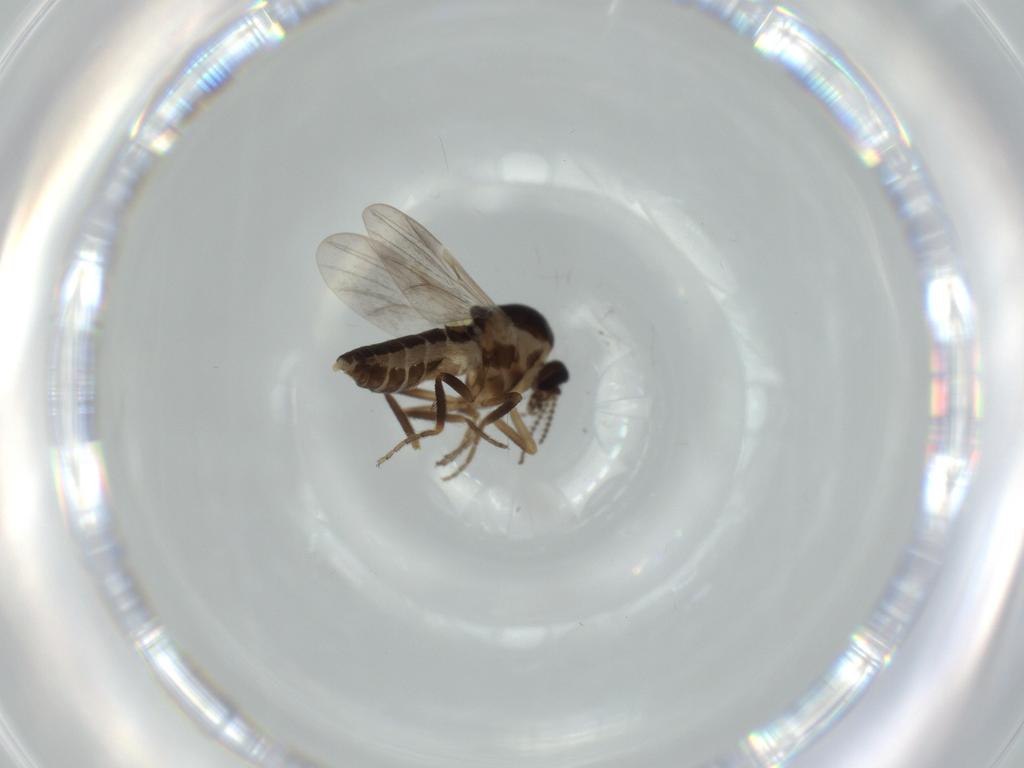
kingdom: Animalia
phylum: Arthropoda
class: Insecta
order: Diptera
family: Ceratopogonidae
